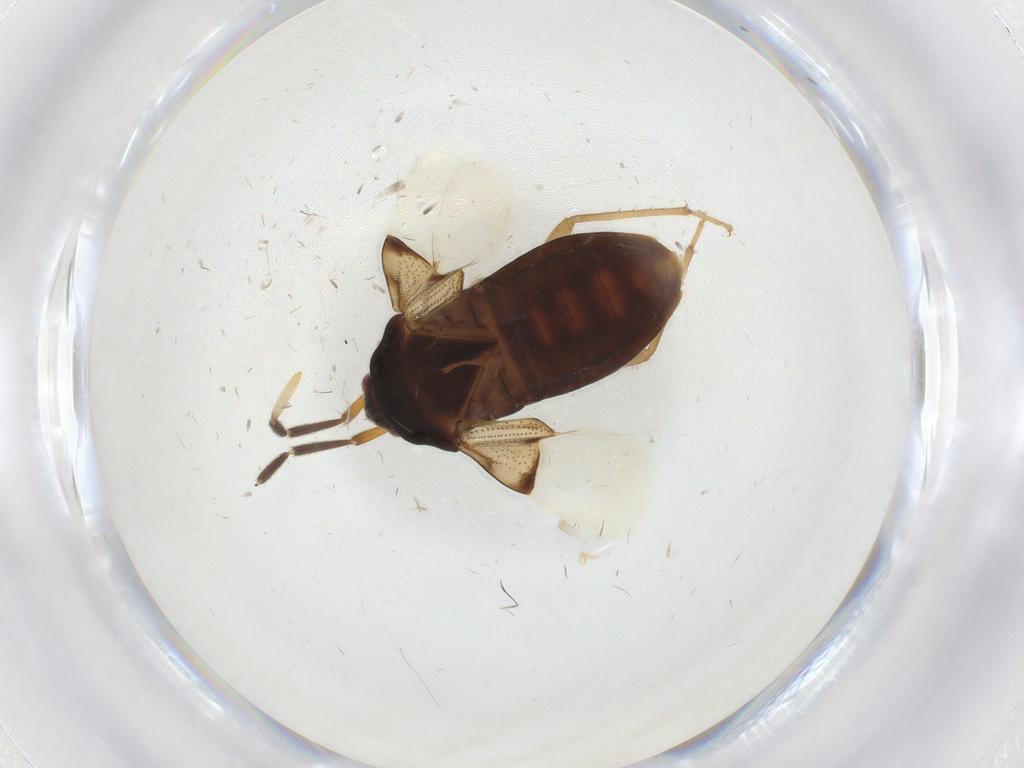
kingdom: Animalia
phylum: Arthropoda
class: Insecta
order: Hemiptera
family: Rhyparochromidae
